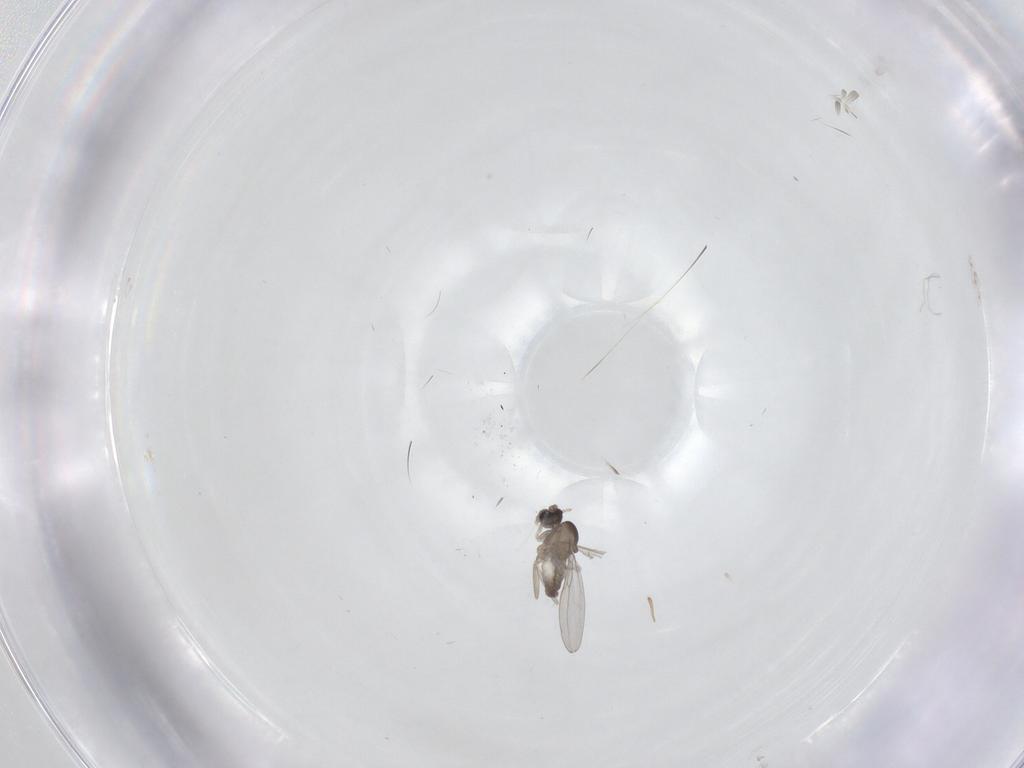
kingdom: Animalia
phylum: Arthropoda
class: Insecta
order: Diptera
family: Cecidomyiidae
